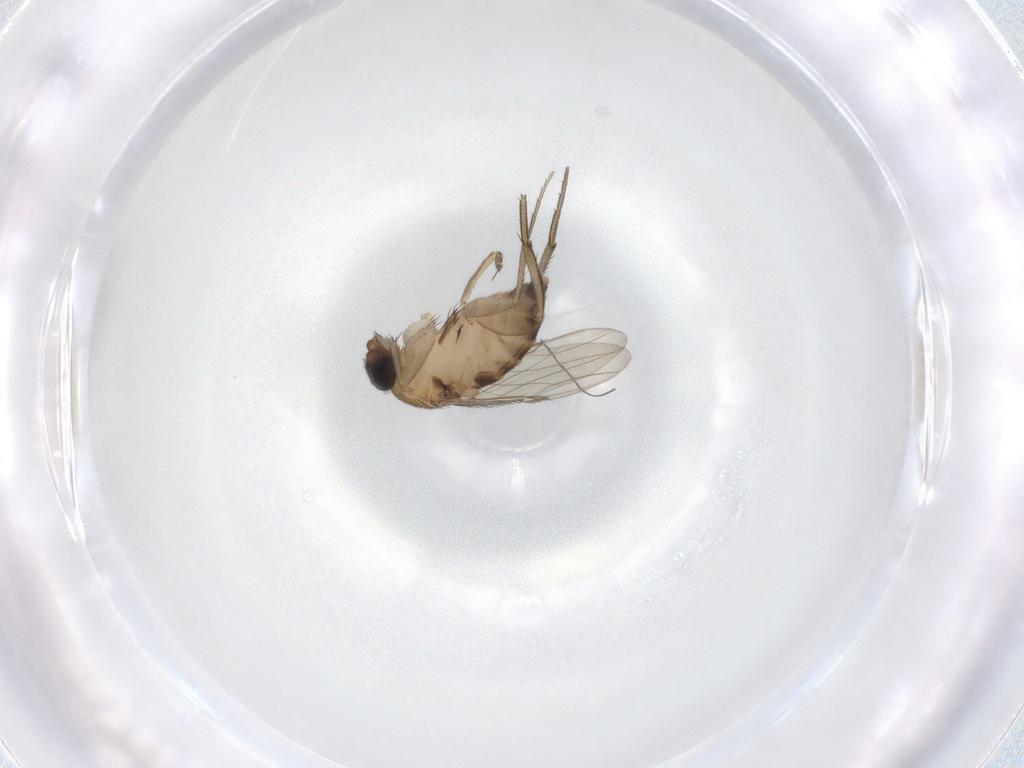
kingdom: Animalia
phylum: Arthropoda
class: Insecta
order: Diptera
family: Phoridae
